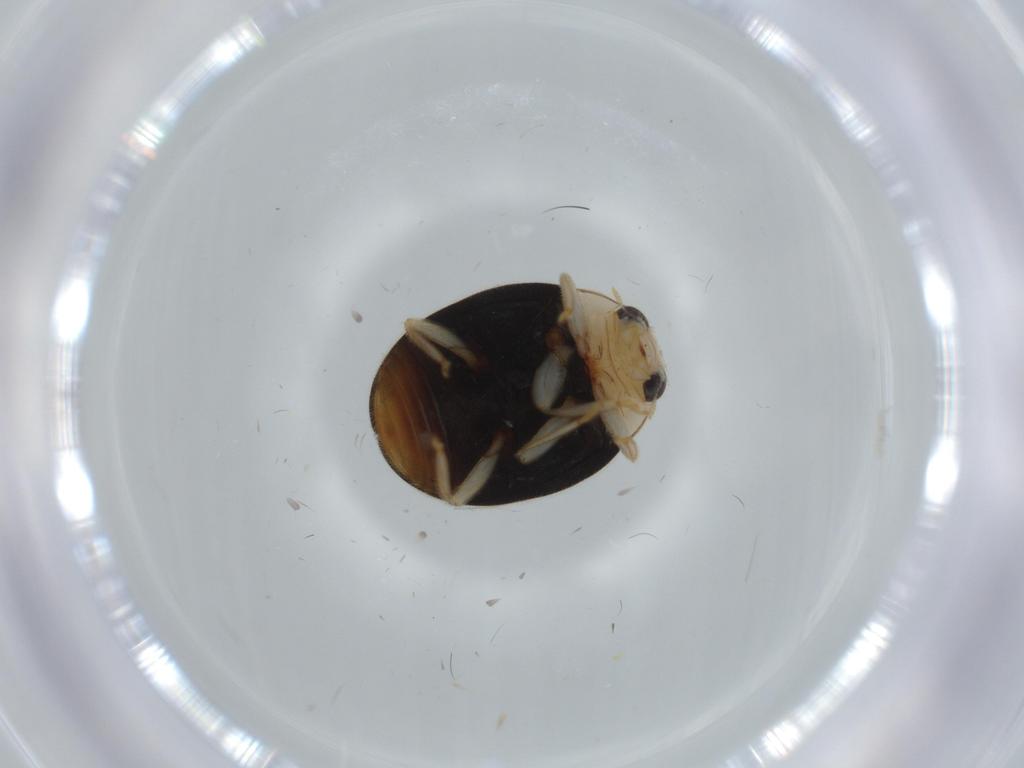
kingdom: Animalia
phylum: Arthropoda
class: Insecta
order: Coleoptera
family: Coccinellidae
